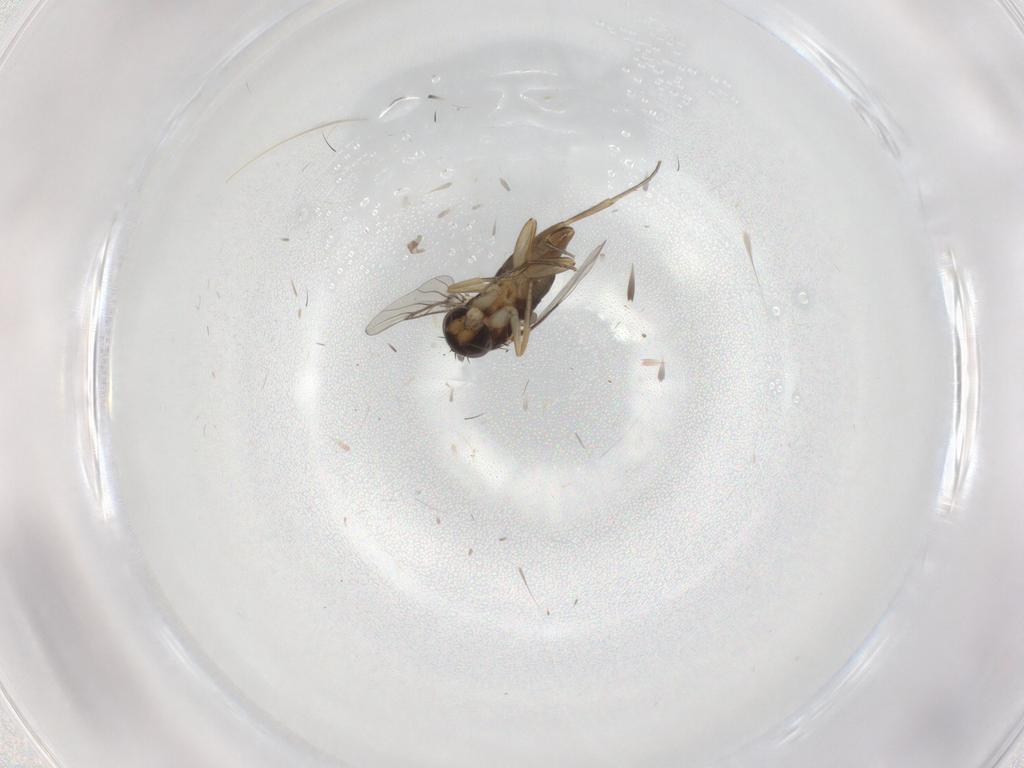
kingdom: Animalia
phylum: Arthropoda
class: Insecta
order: Diptera
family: Phoridae
